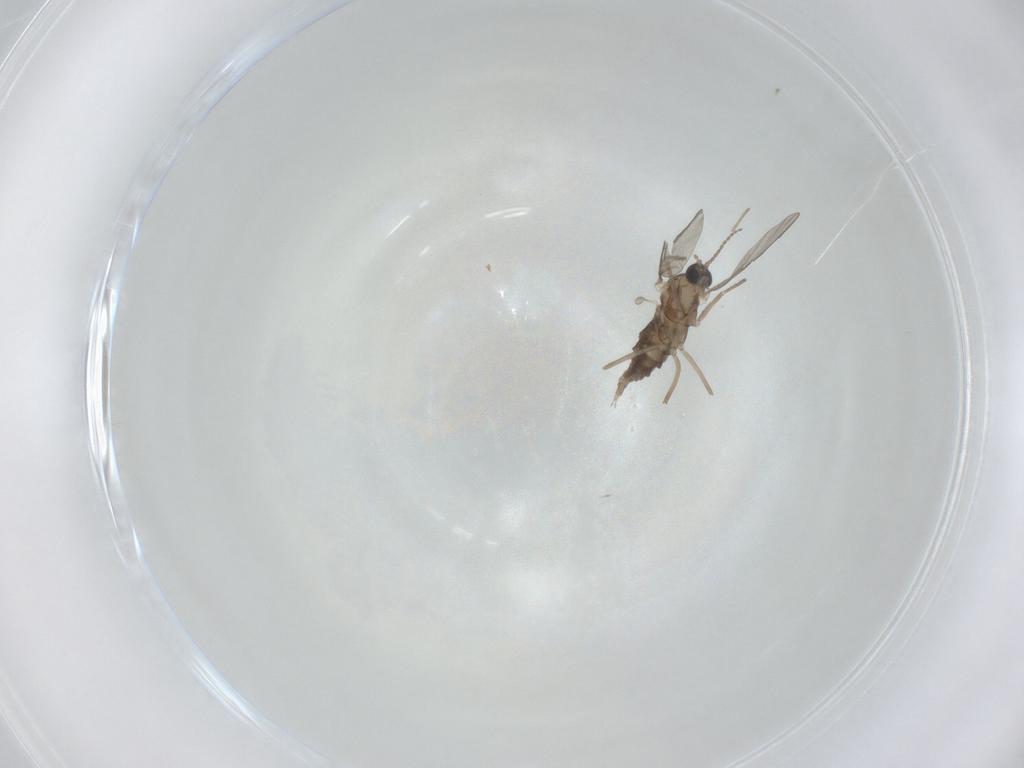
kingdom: Animalia
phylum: Arthropoda
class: Insecta
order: Diptera
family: Cecidomyiidae
